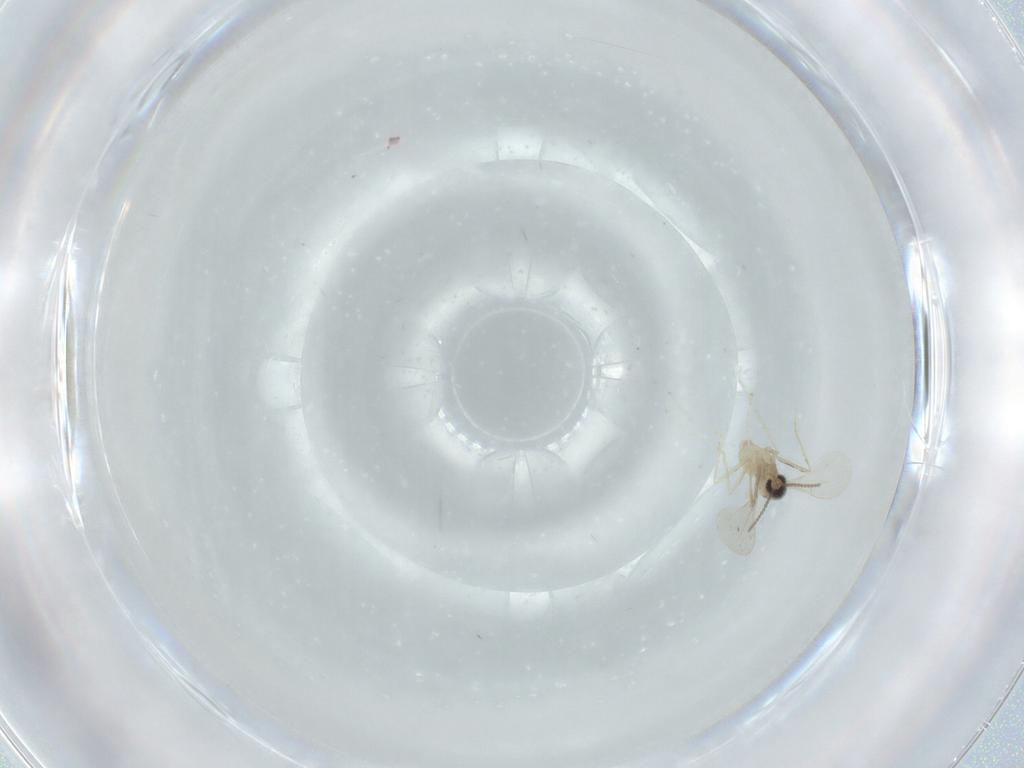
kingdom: Animalia
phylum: Arthropoda
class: Insecta
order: Diptera
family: Cecidomyiidae
